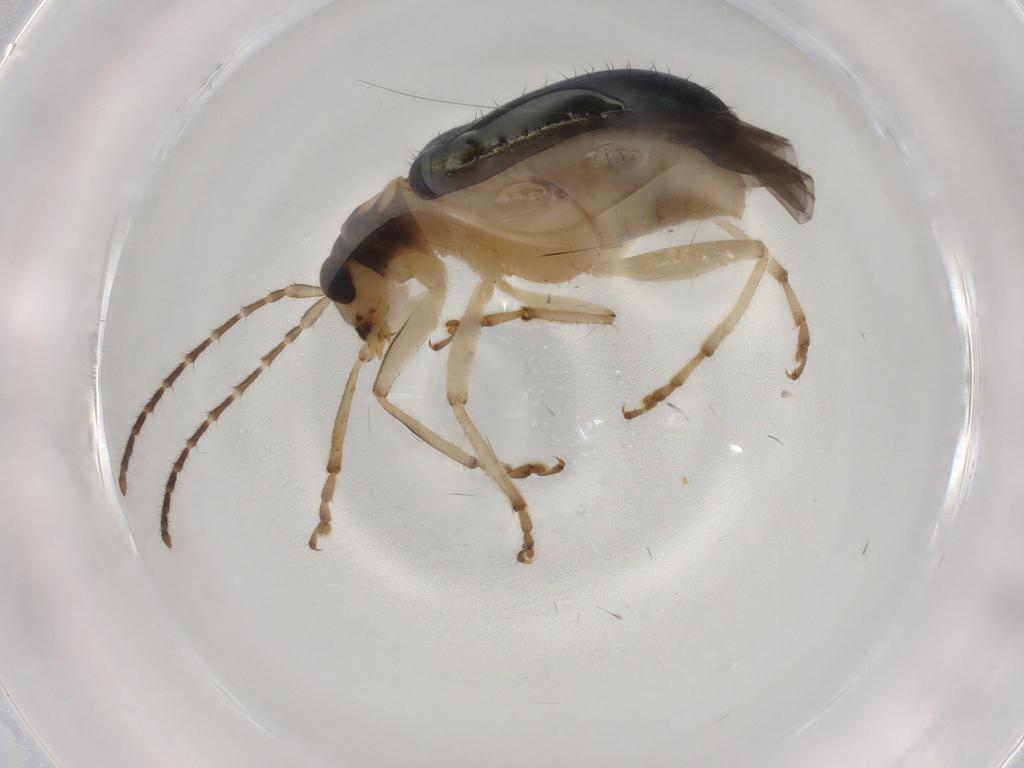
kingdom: Animalia
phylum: Arthropoda
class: Insecta
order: Coleoptera
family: Chrysomelidae
